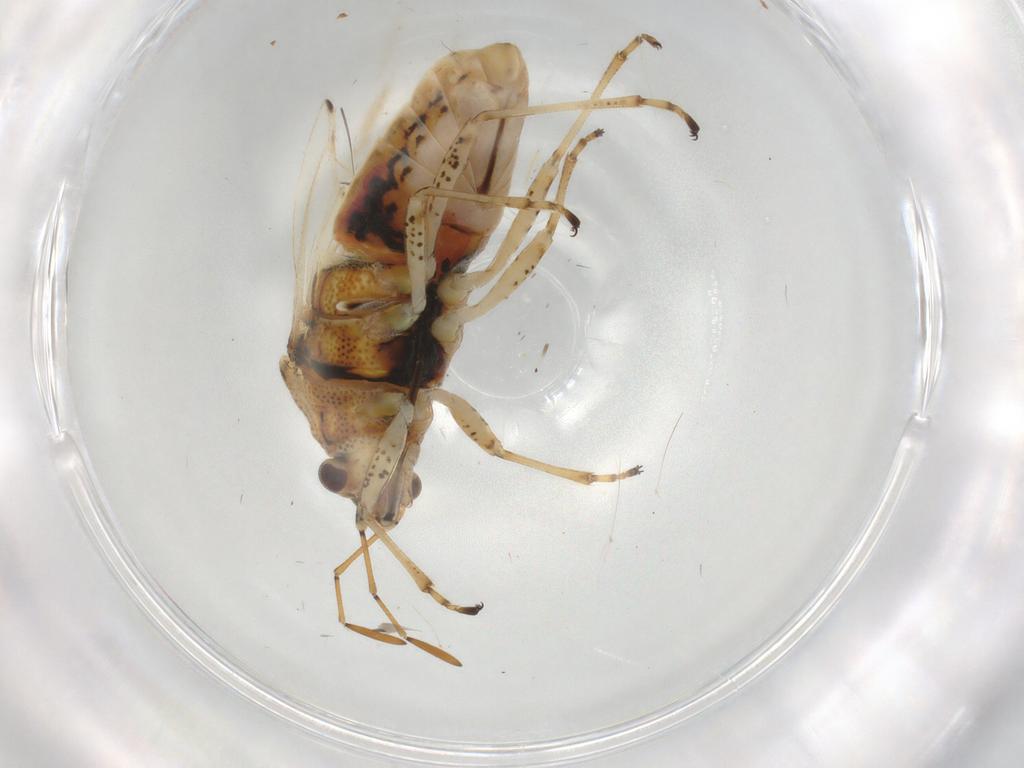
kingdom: Animalia
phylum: Arthropoda
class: Insecta
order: Hemiptera
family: Lygaeidae
